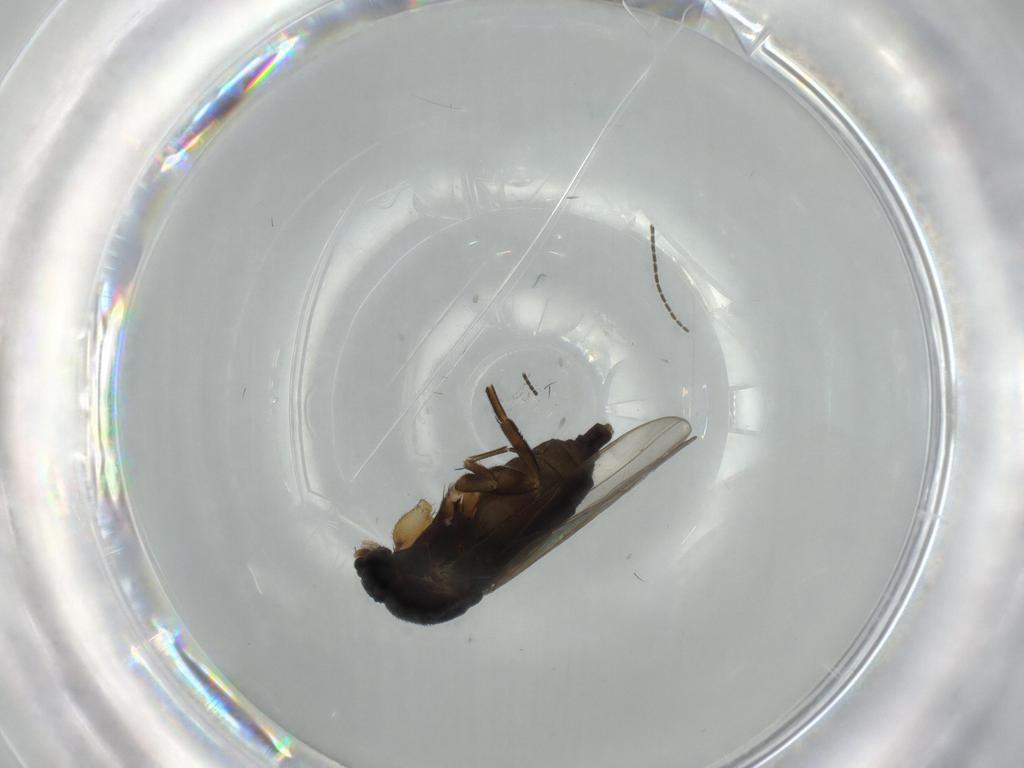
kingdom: Animalia
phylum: Arthropoda
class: Insecta
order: Diptera
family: Phoridae
